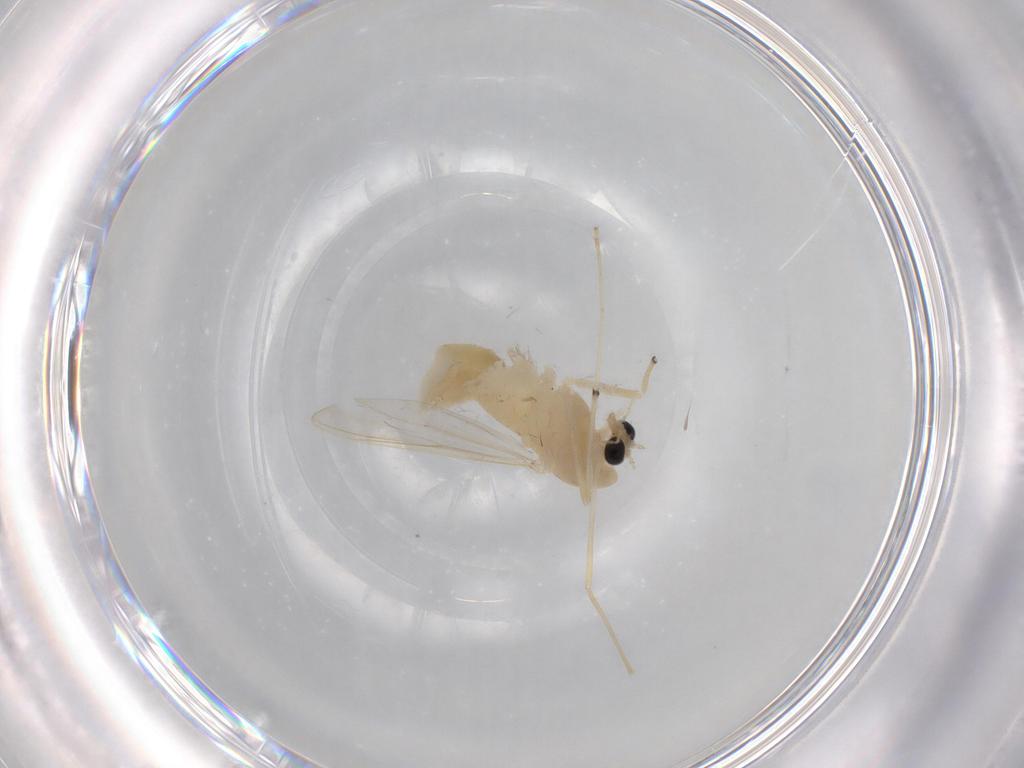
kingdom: Animalia
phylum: Arthropoda
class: Insecta
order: Diptera
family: Chironomidae
